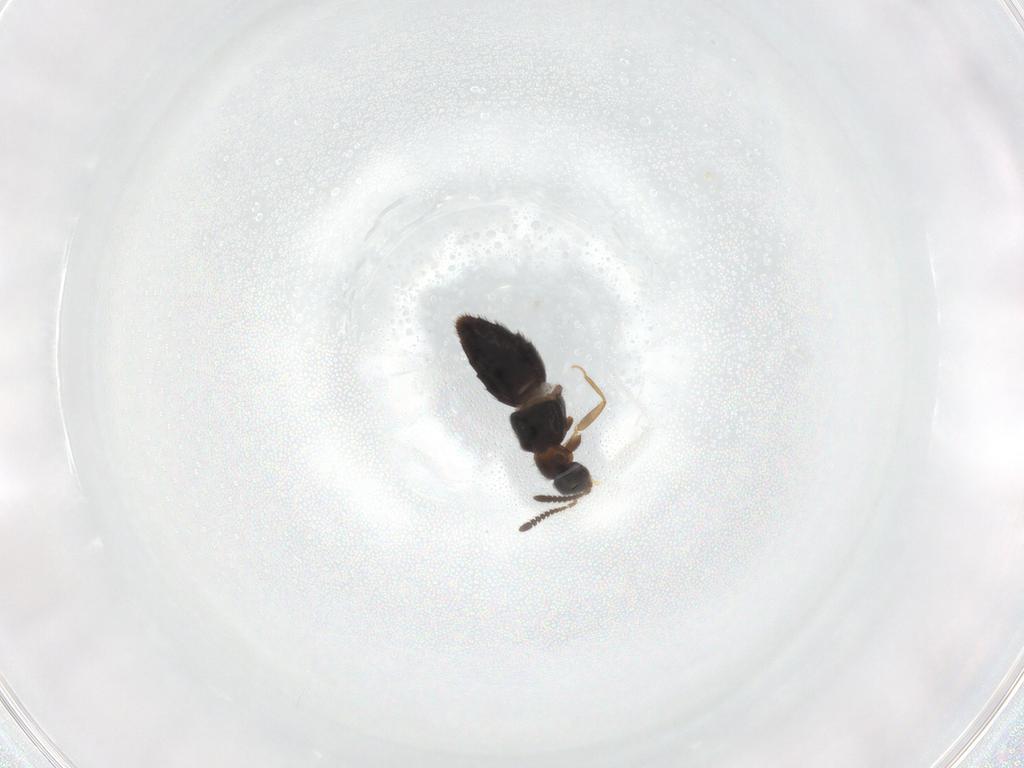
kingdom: Animalia
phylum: Arthropoda
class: Insecta
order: Coleoptera
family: Staphylinidae
